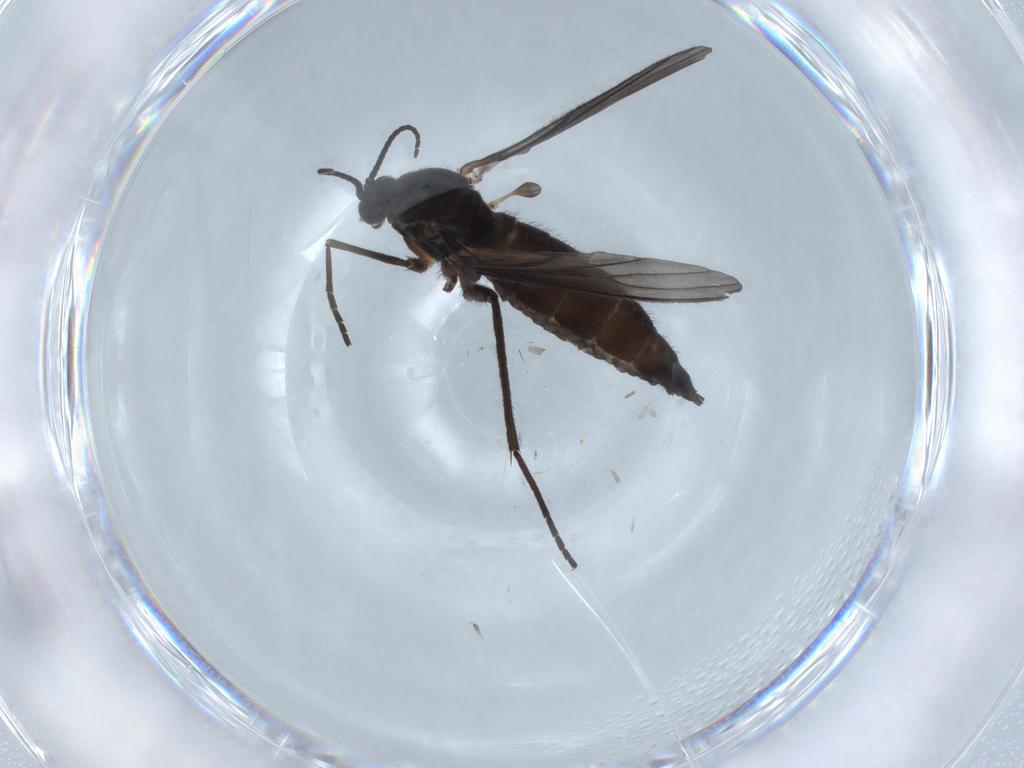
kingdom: Animalia
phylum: Arthropoda
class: Insecta
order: Diptera
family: Sciaridae
